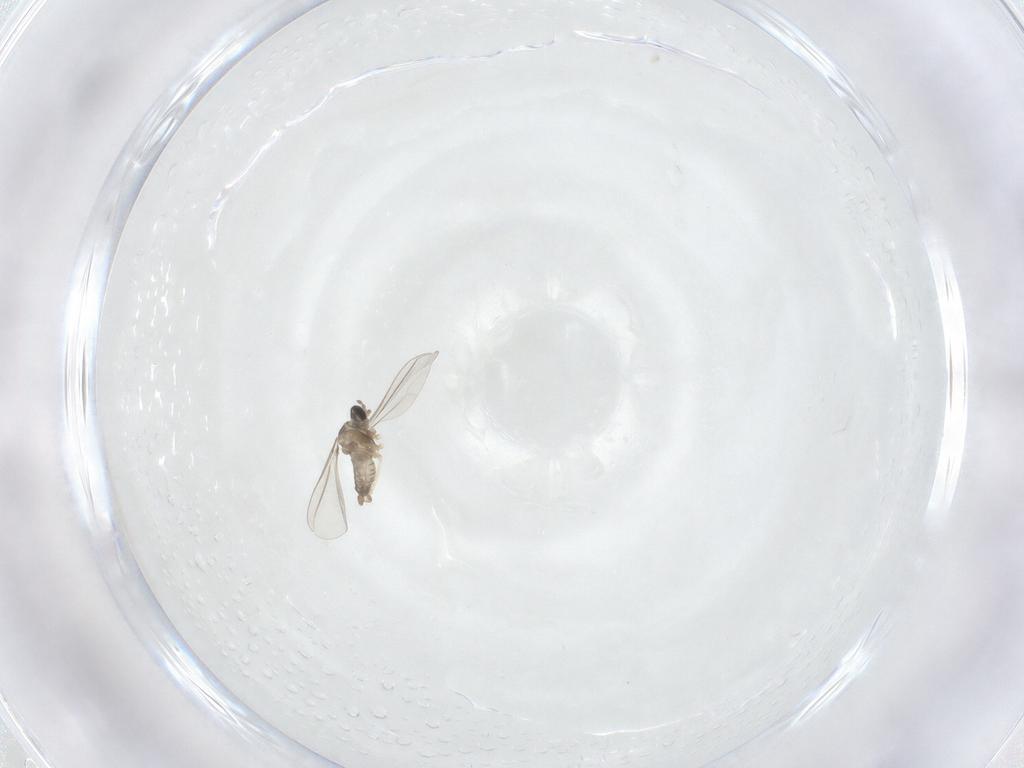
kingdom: Animalia
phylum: Arthropoda
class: Insecta
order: Diptera
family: Cecidomyiidae
